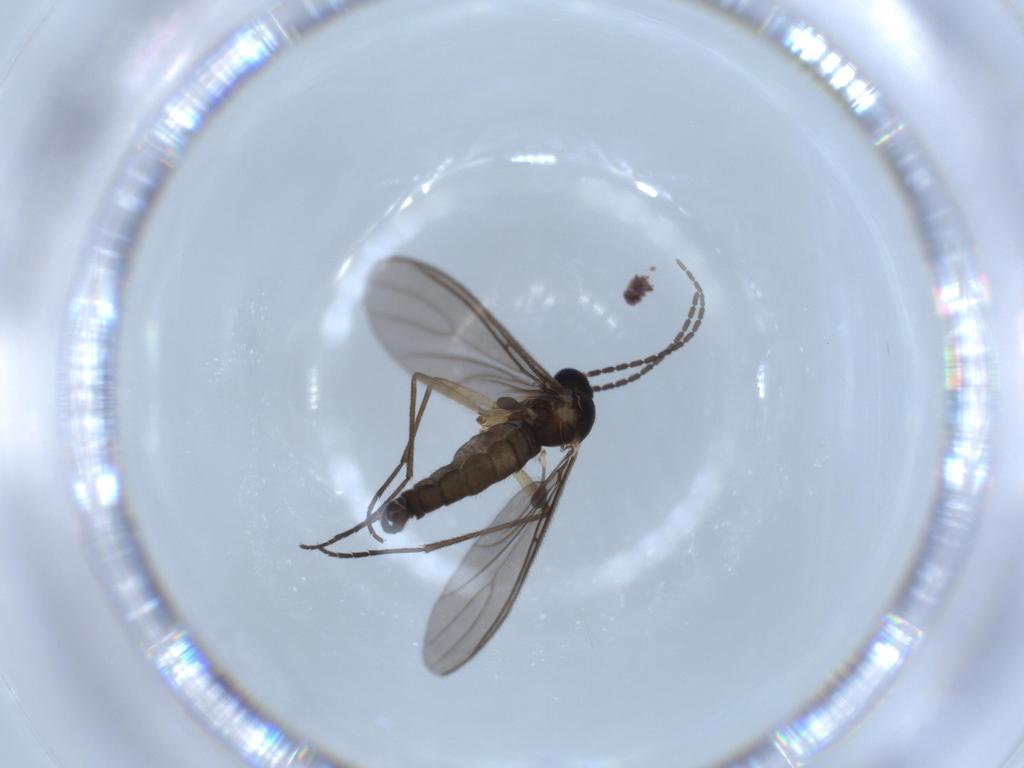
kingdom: Animalia
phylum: Arthropoda
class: Insecta
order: Diptera
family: Sciaridae
